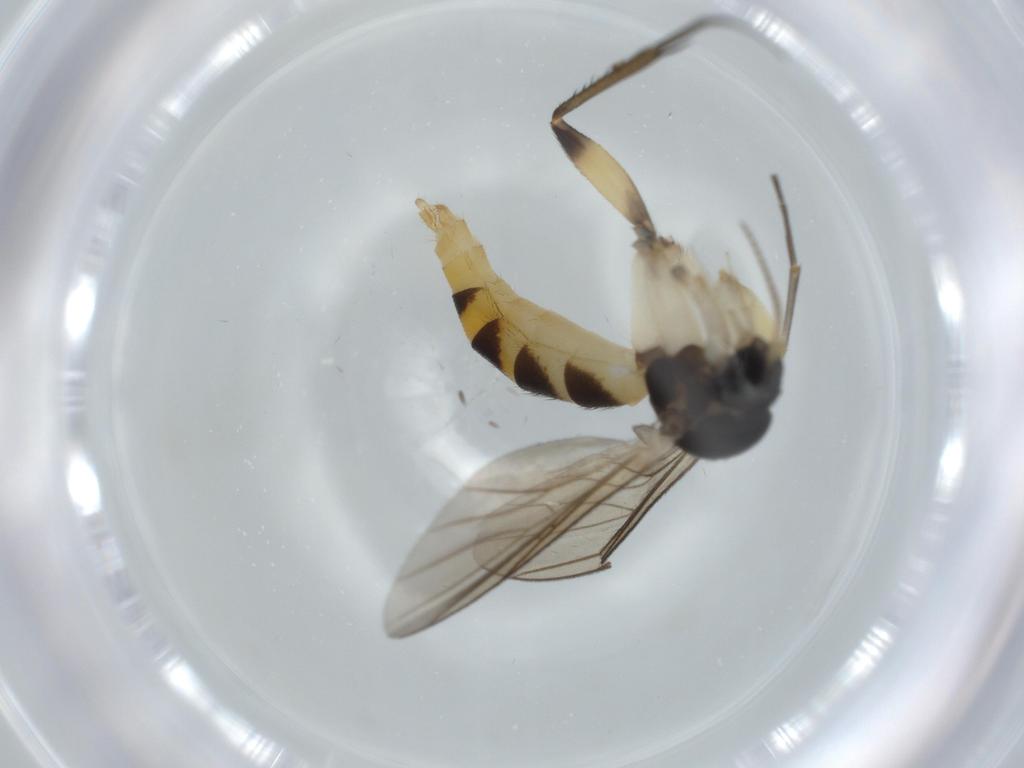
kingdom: Animalia
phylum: Arthropoda
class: Insecta
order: Diptera
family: Cecidomyiidae
